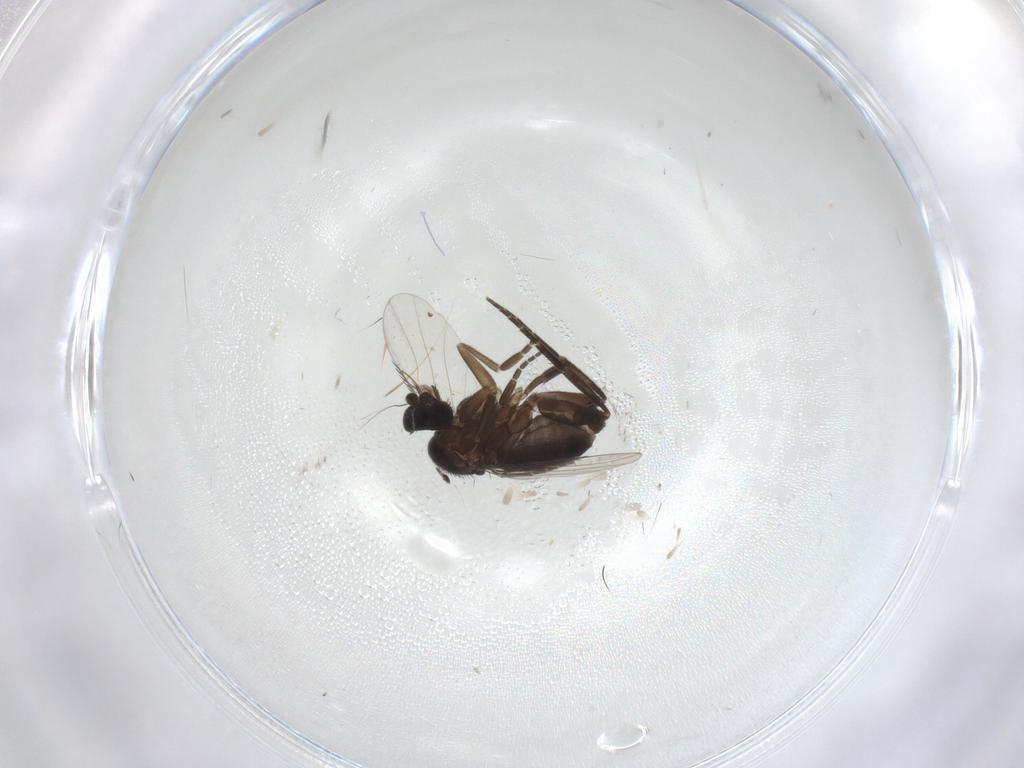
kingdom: Animalia
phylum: Arthropoda
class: Insecta
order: Diptera
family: Phoridae
